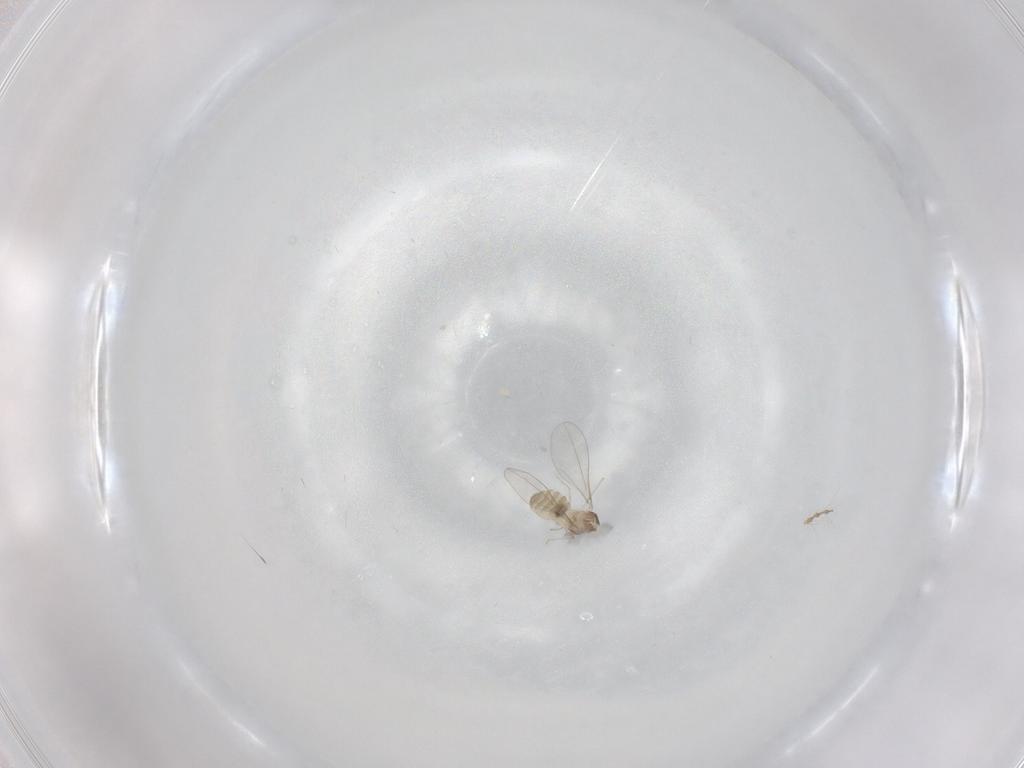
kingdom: Animalia
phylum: Arthropoda
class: Insecta
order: Diptera
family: Cecidomyiidae
